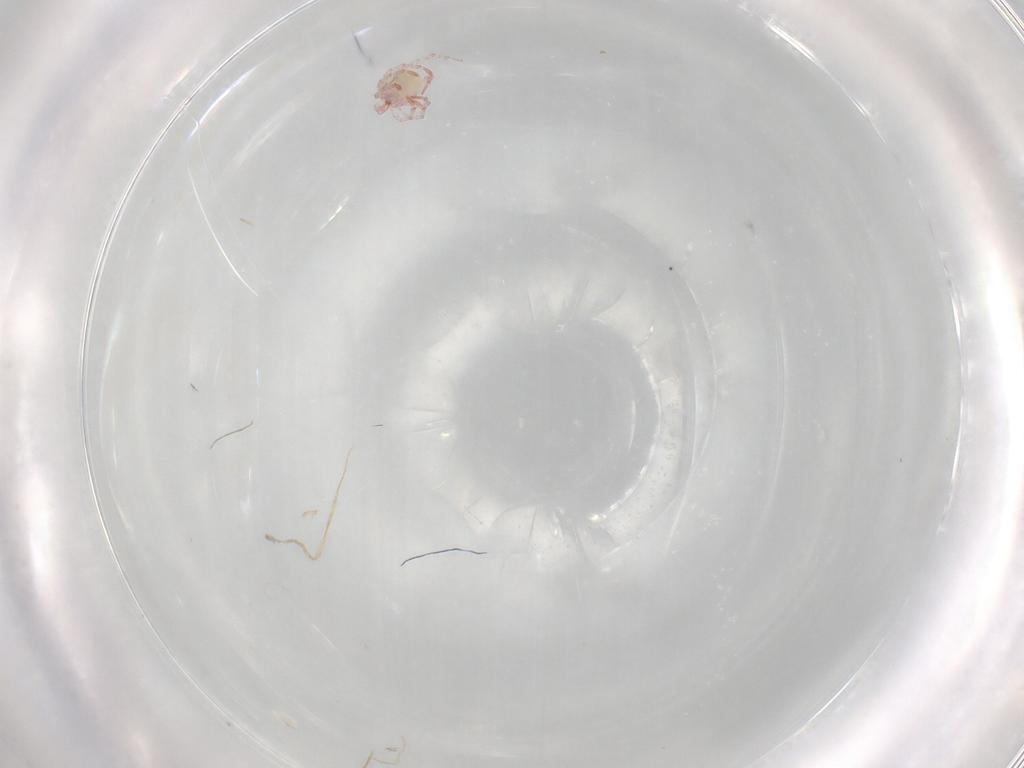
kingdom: Animalia
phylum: Arthropoda
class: Arachnida
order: Trombidiformes
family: Pionidae
